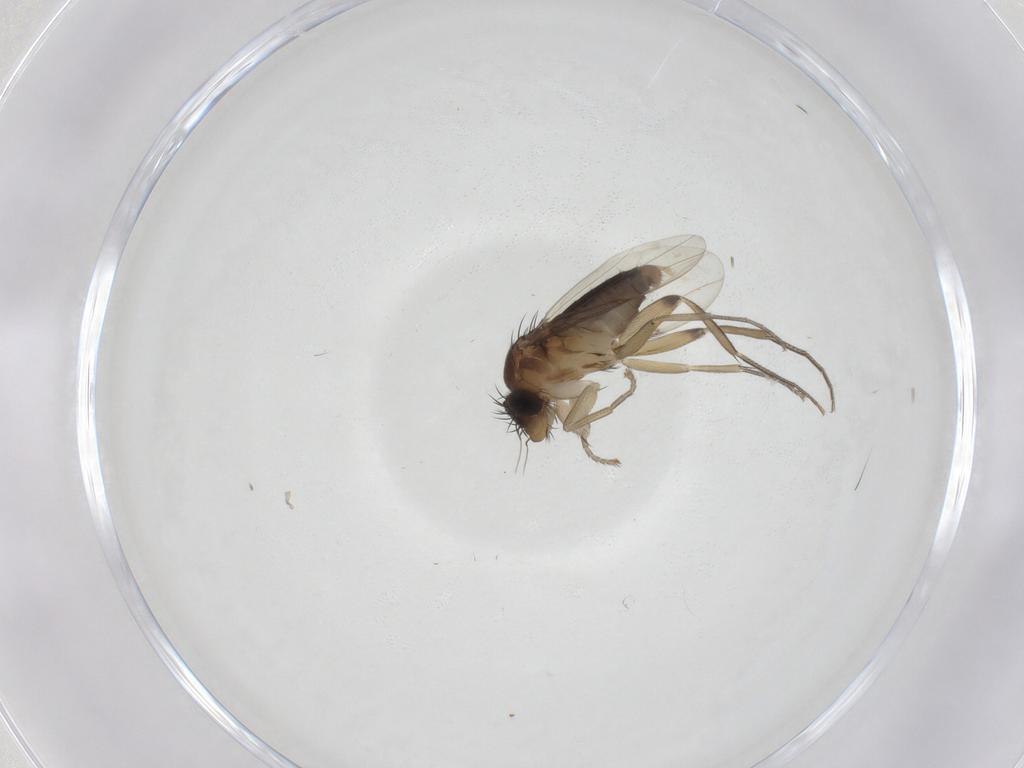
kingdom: Animalia
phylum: Arthropoda
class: Insecta
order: Diptera
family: Phoridae
